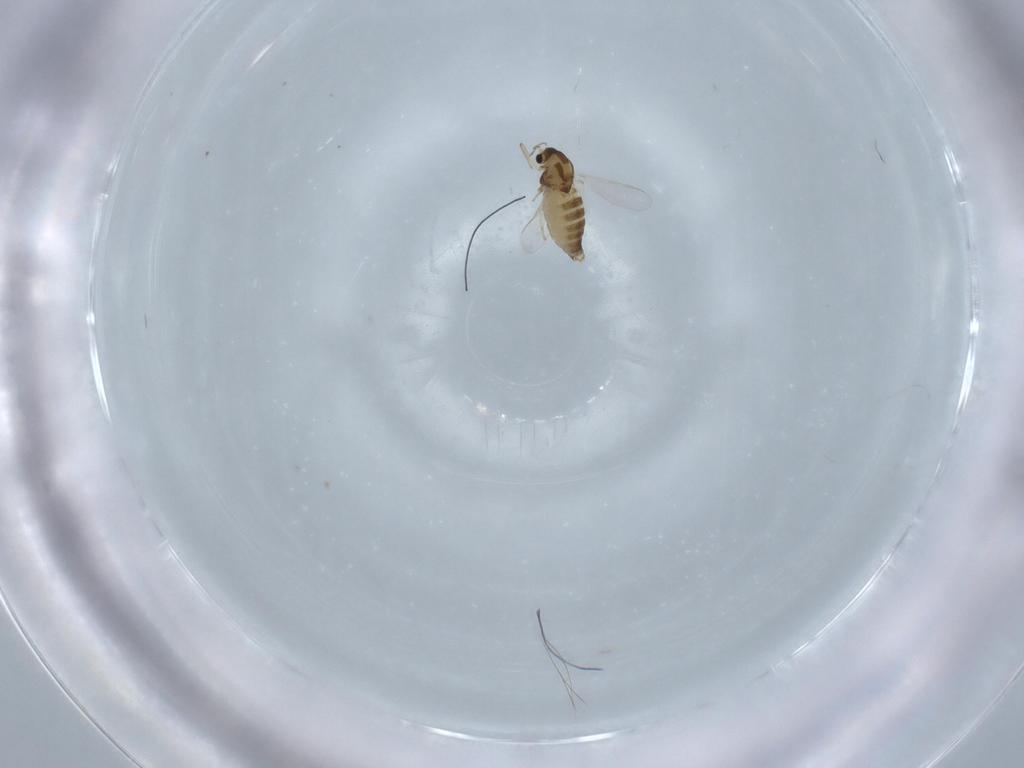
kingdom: Animalia
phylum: Arthropoda
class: Insecta
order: Diptera
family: Chironomidae
